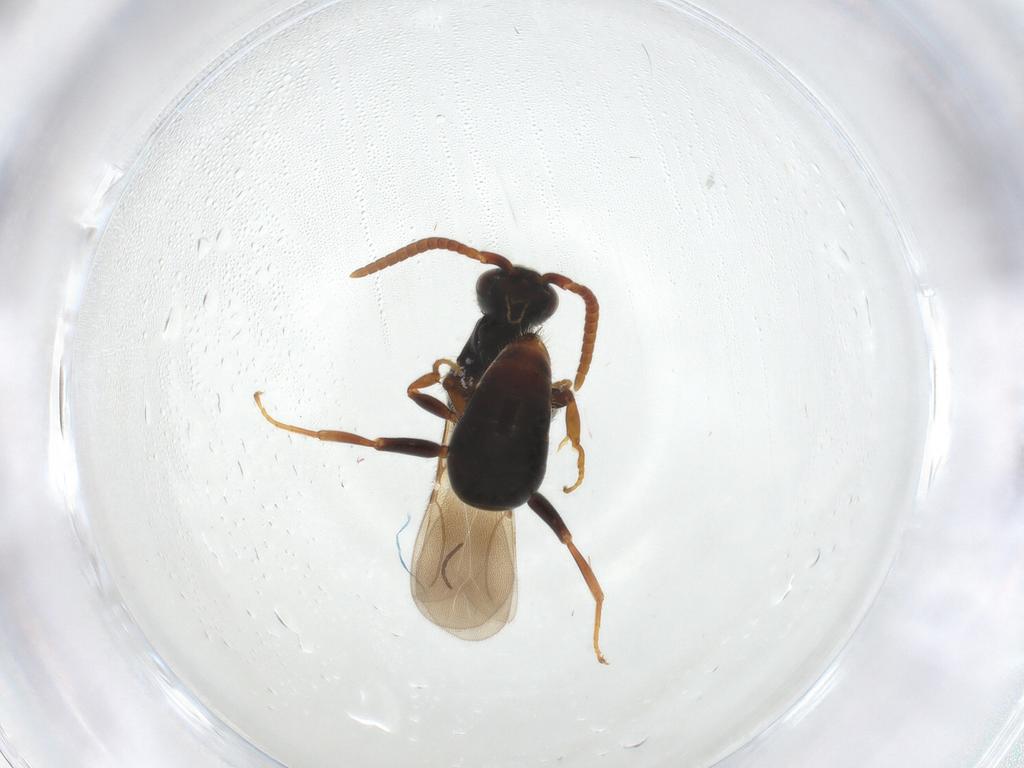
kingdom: Animalia
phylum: Arthropoda
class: Insecta
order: Hymenoptera
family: Bethylidae
